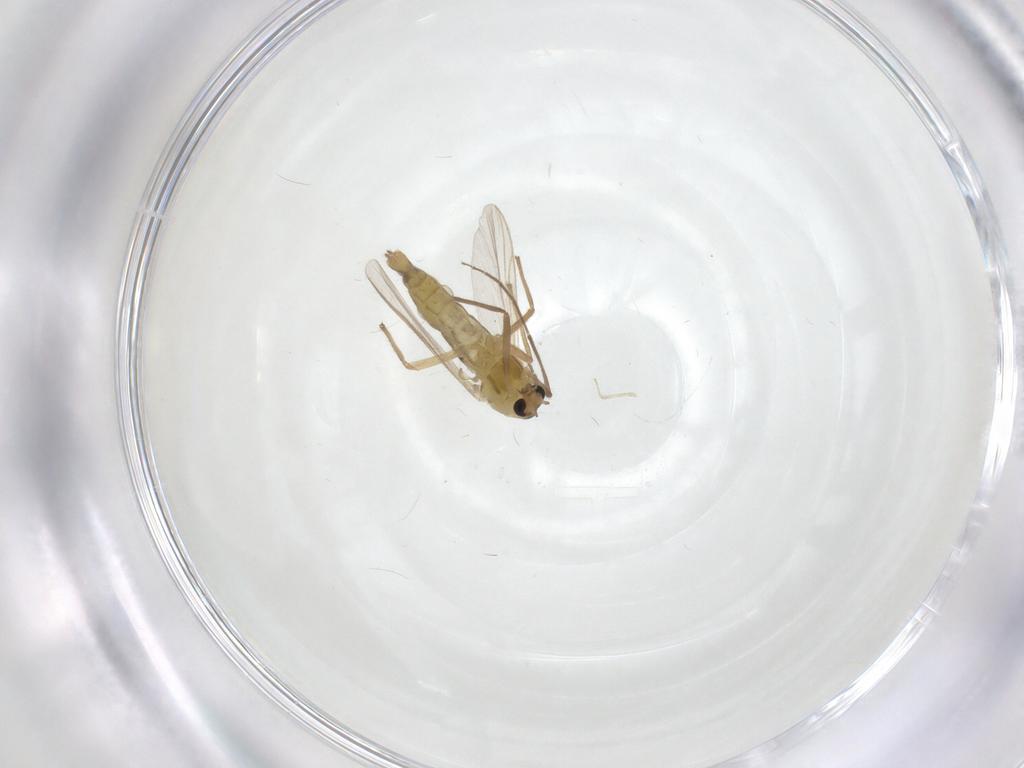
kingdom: Animalia
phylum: Arthropoda
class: Insecta
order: Diptera
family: Chironomidae
